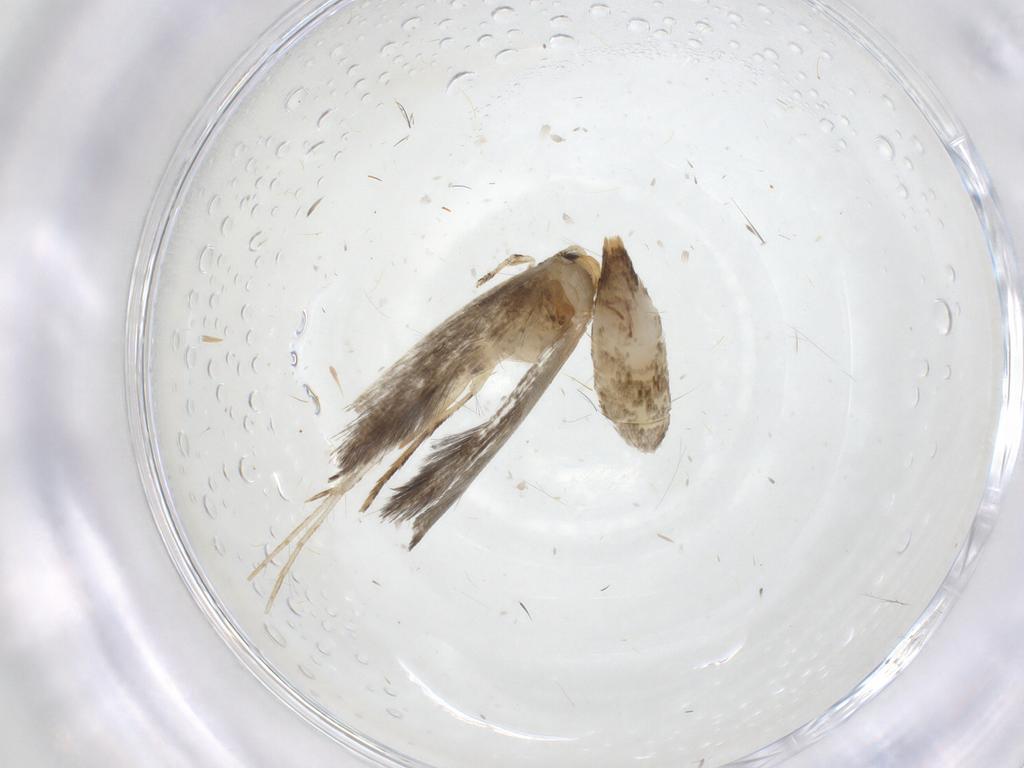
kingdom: Animalia
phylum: Arthropoda
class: Insecta
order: Lepidoptera
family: Tineidae
